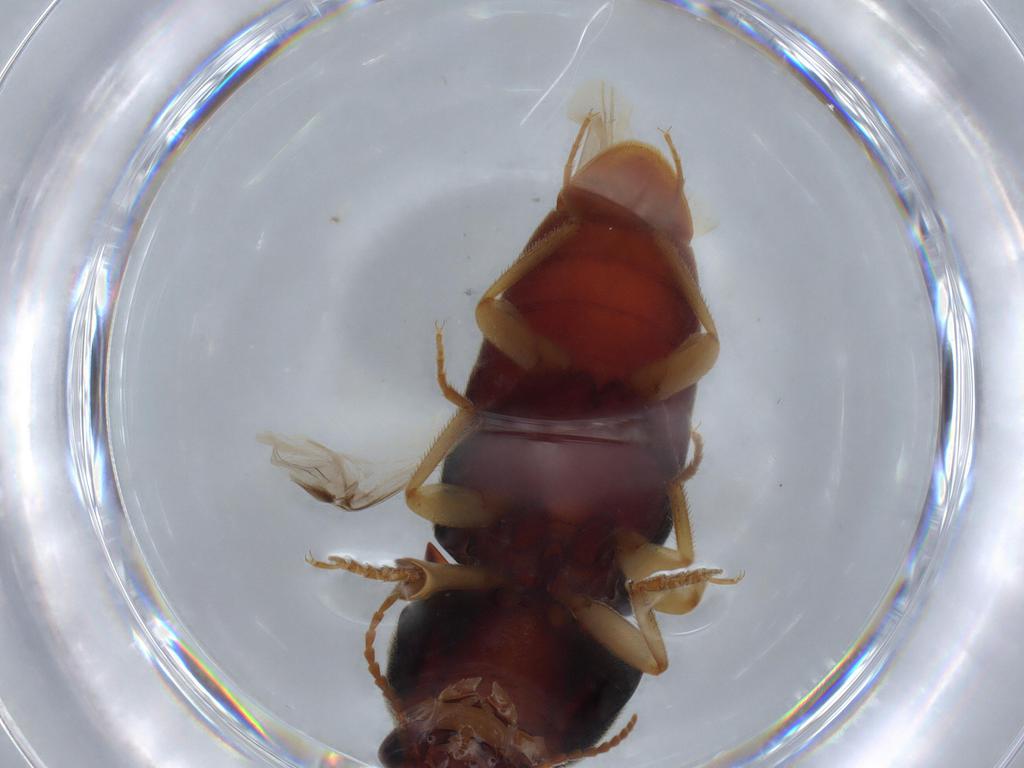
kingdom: Animalia
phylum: Arthropoda
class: Insecta
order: Coleoptera
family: Elateridae
